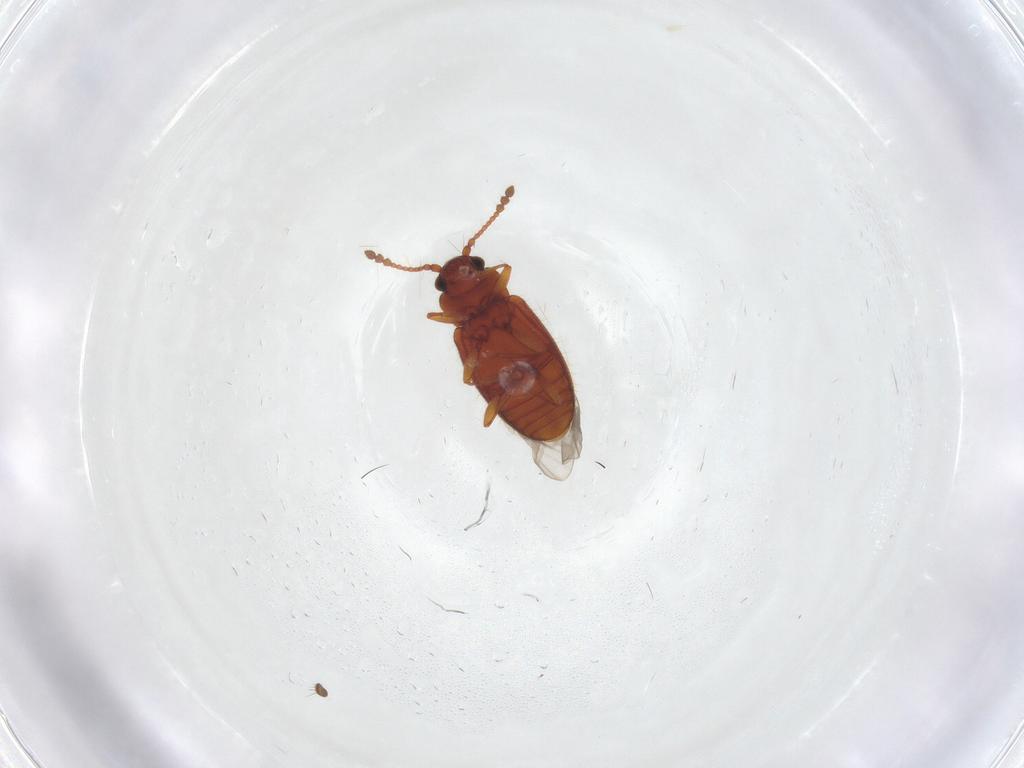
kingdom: Animalia
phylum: Arthropoda
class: Insecta
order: Coleoptera
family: Cryptophagidae
